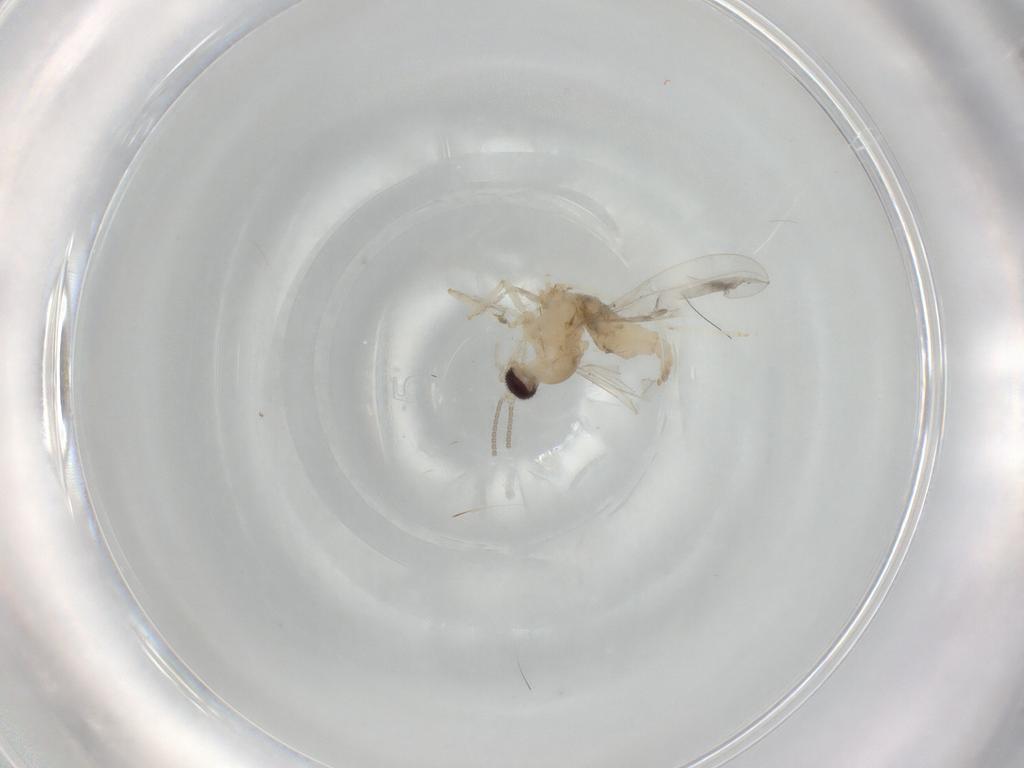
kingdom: Animalia
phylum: Arthropoda
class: Insecta
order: Diptera
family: Cecidomyiidae
